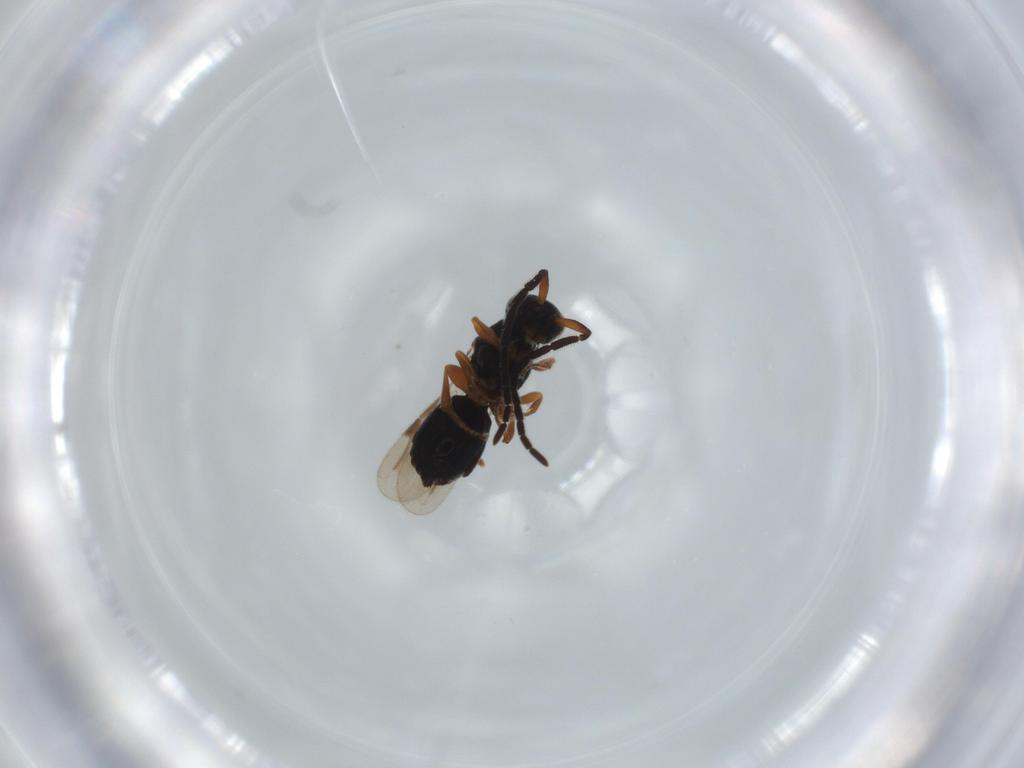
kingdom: Animalia
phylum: Arthropoda
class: Insecta
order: Hymenoptera
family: Megaspilidae
